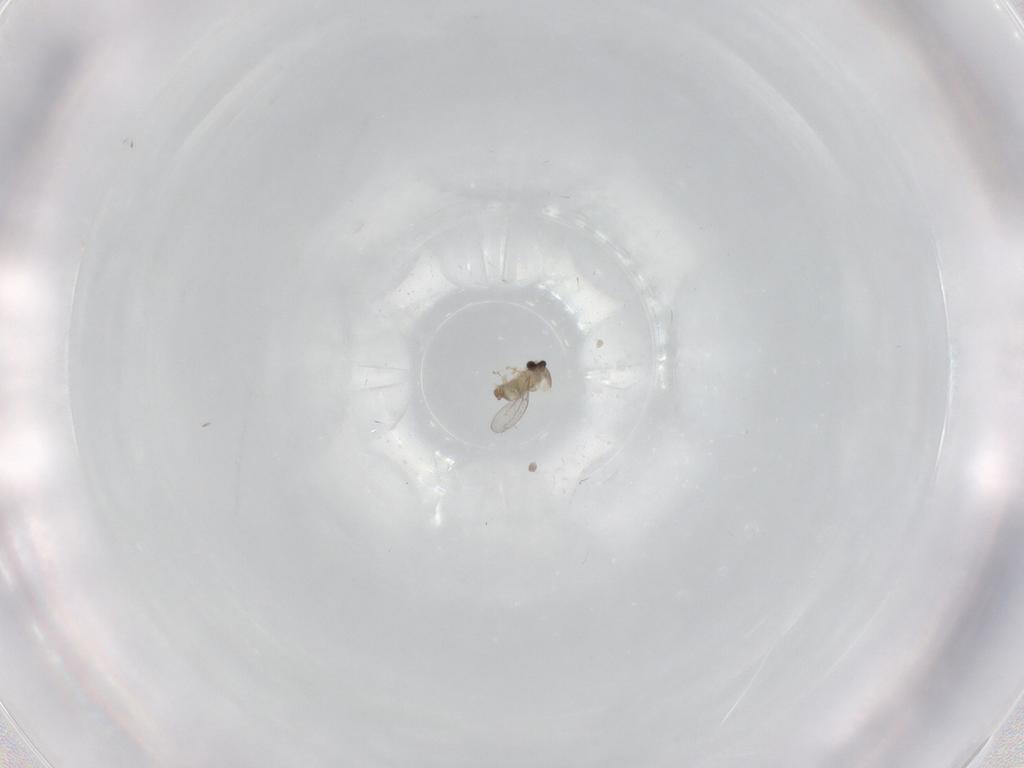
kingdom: Animalia
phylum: Arthropoda
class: Insecta
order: Diptera
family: Cecidomyiidae
